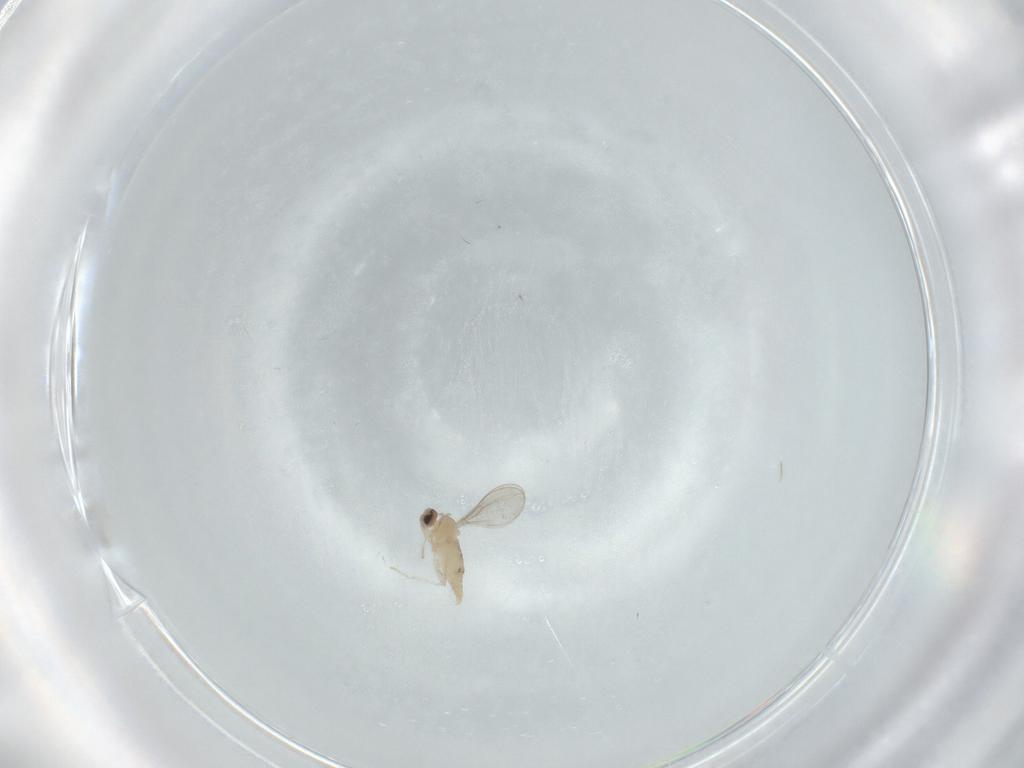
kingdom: Animalia
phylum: Arthropoda
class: Insecta
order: Diptera
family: Cecidomyiidae
